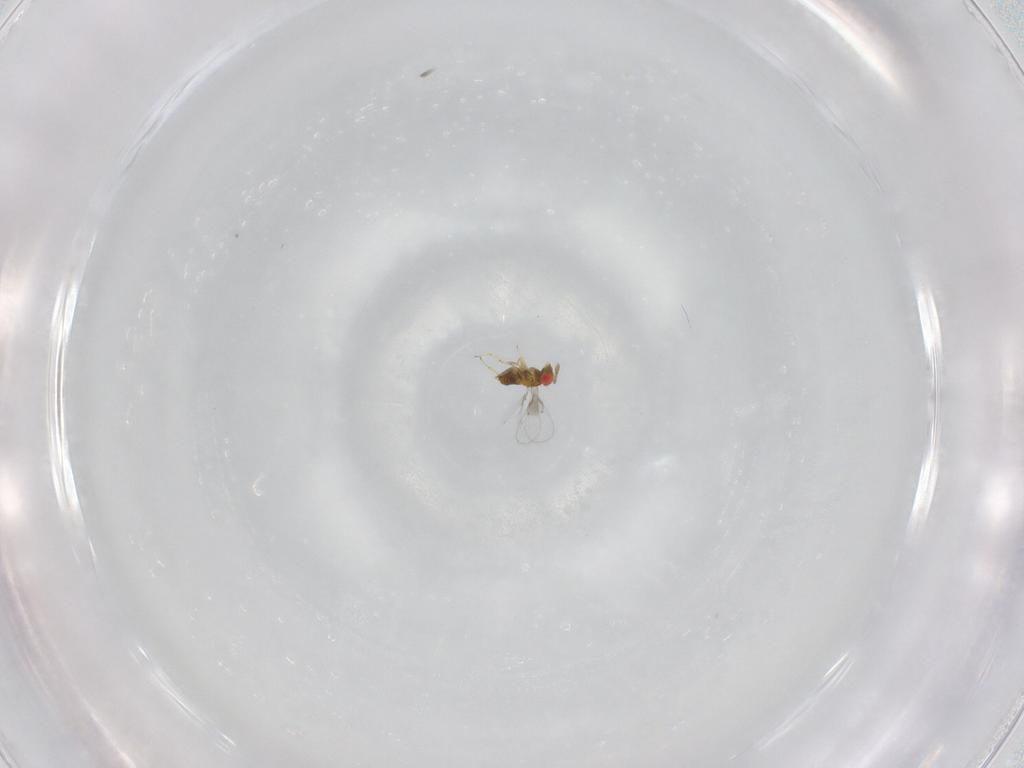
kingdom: Animalia
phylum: Arthropoda
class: Insecta
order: Hymenoptera
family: Trichogrammatidae
